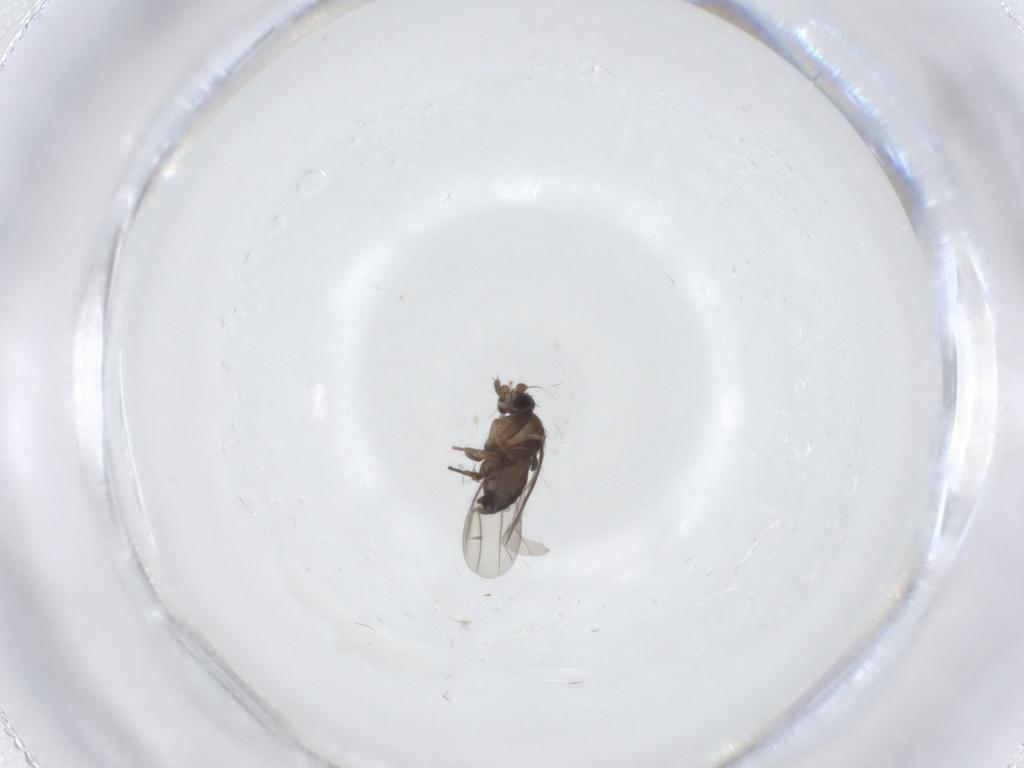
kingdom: Animalia
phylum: Arthropoda
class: Insecta
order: Diptera
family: Phoridae
